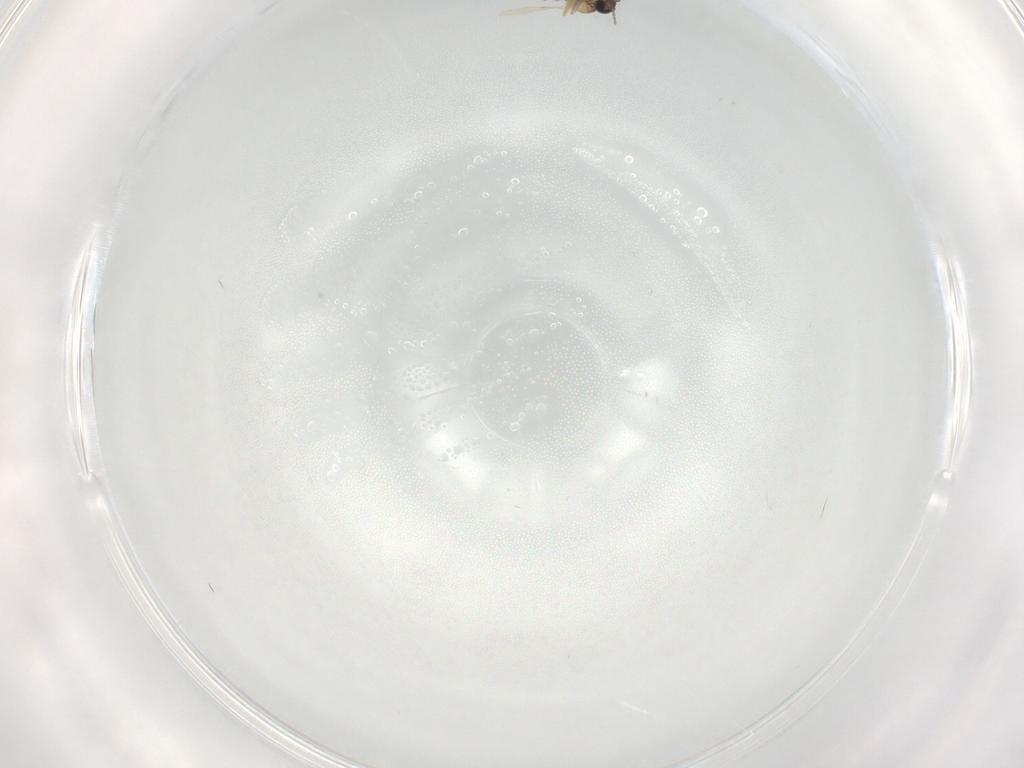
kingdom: Animalia
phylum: Arthropoda
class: Insecta
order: Diptera
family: Ceratopogonidae
